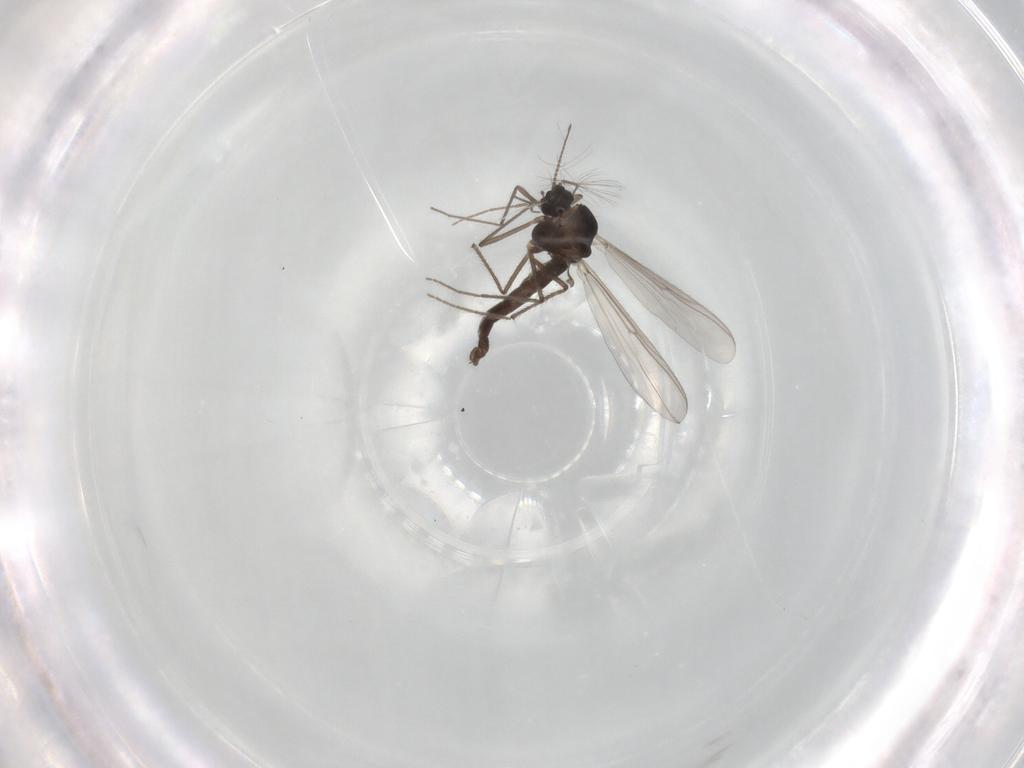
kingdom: Animalia
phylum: Arthropoda
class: Insecta
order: Diptera
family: Chironomidae
